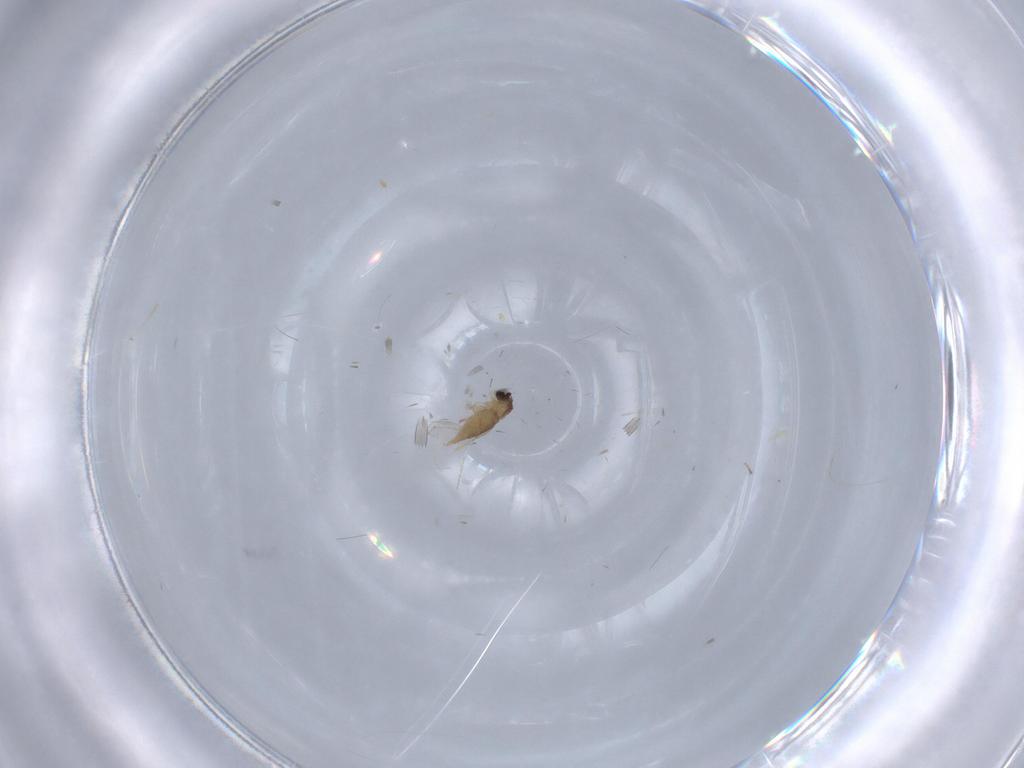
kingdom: Animalia
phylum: Arthropoda
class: Insecta
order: Diptera
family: Cecidomyiidae
